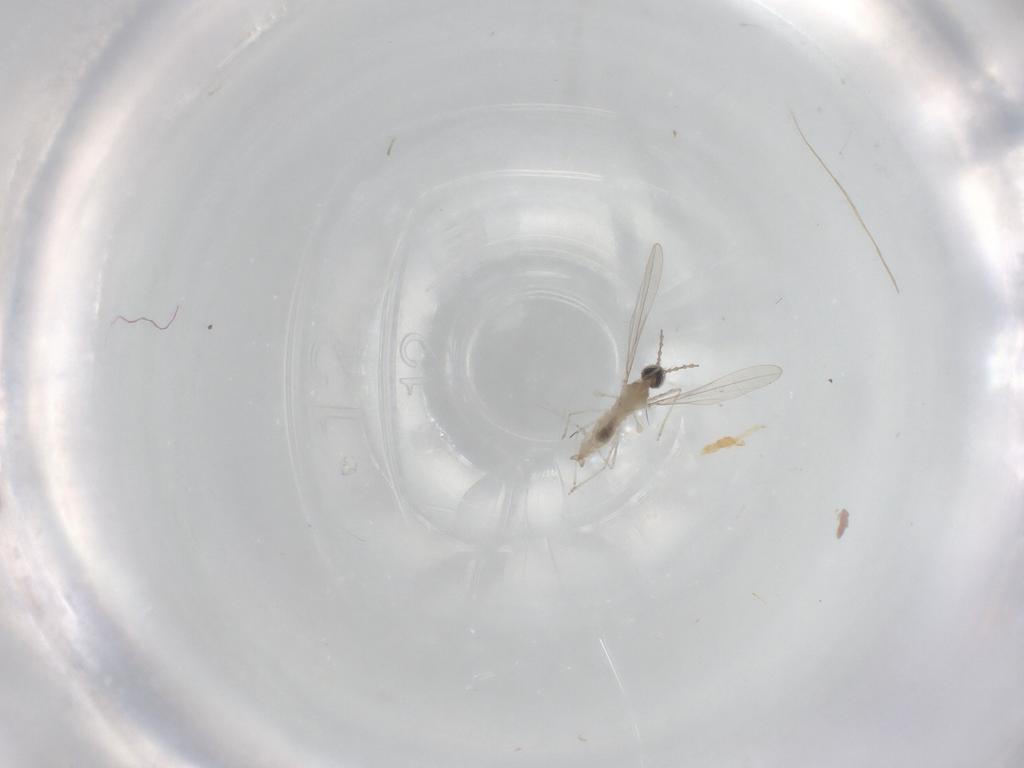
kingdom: Animalia
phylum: Arthropoda
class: Insecta
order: Diptera
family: Cecidomyiidae
